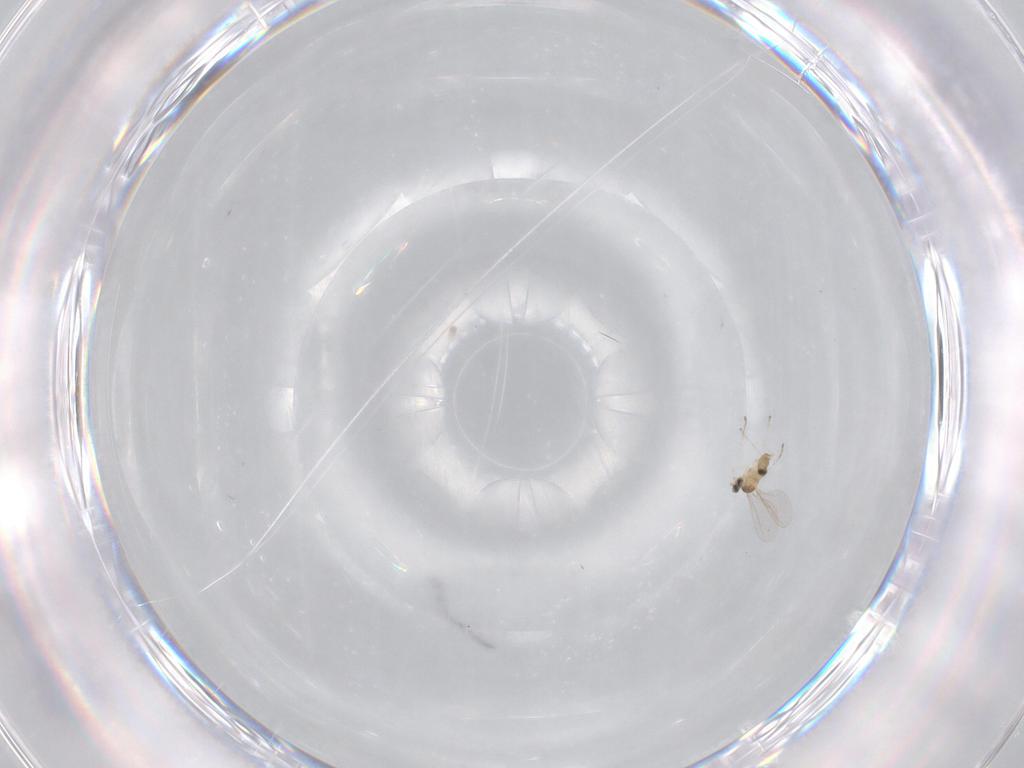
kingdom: Animalia
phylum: Arthropoda
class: Insecta
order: Diptera
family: Cecidomyiidae
